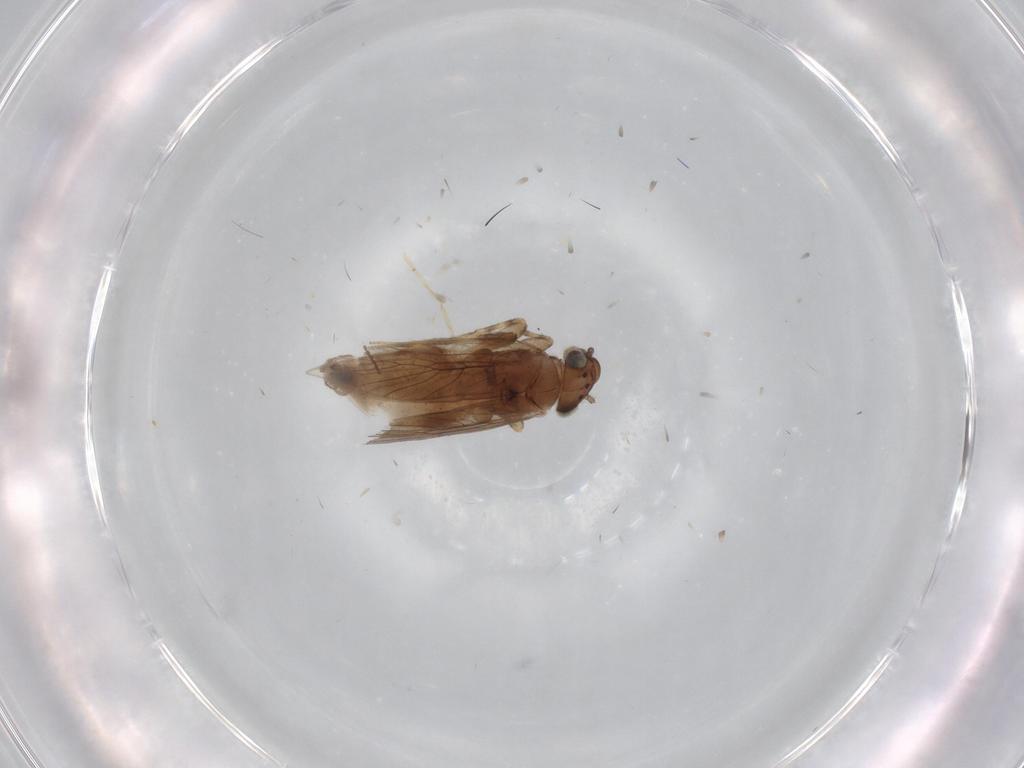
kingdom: Animalia
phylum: Arthropoda
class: Insecta
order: Psocodea
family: Lepidopsocidae
